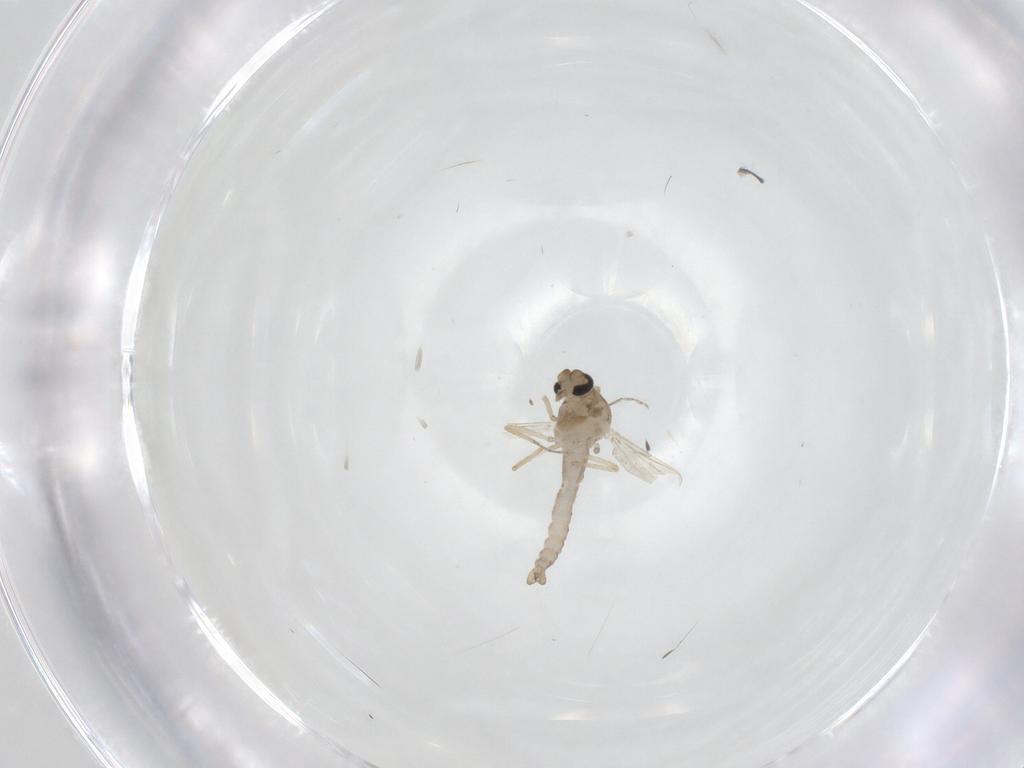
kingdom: Animalia
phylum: Arthropoda
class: Insecta
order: Diptera
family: Ceratopogonidae
